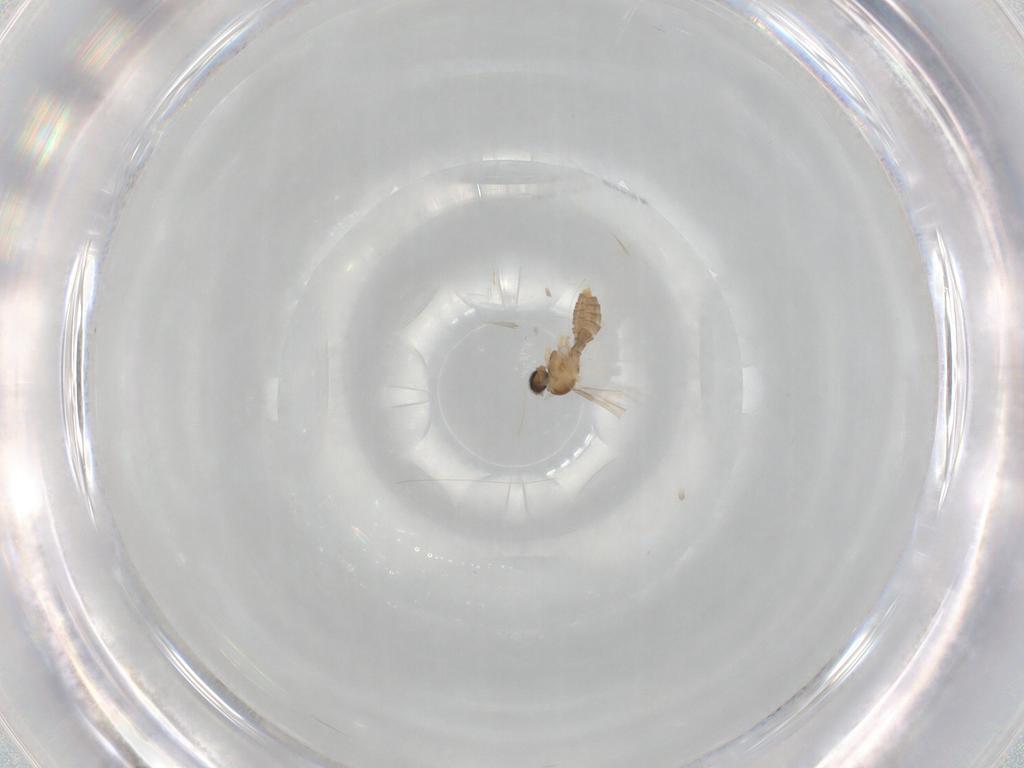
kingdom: Animalia
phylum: Arthropoda
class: Insecta
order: Diptera
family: Cecidomyiidae
